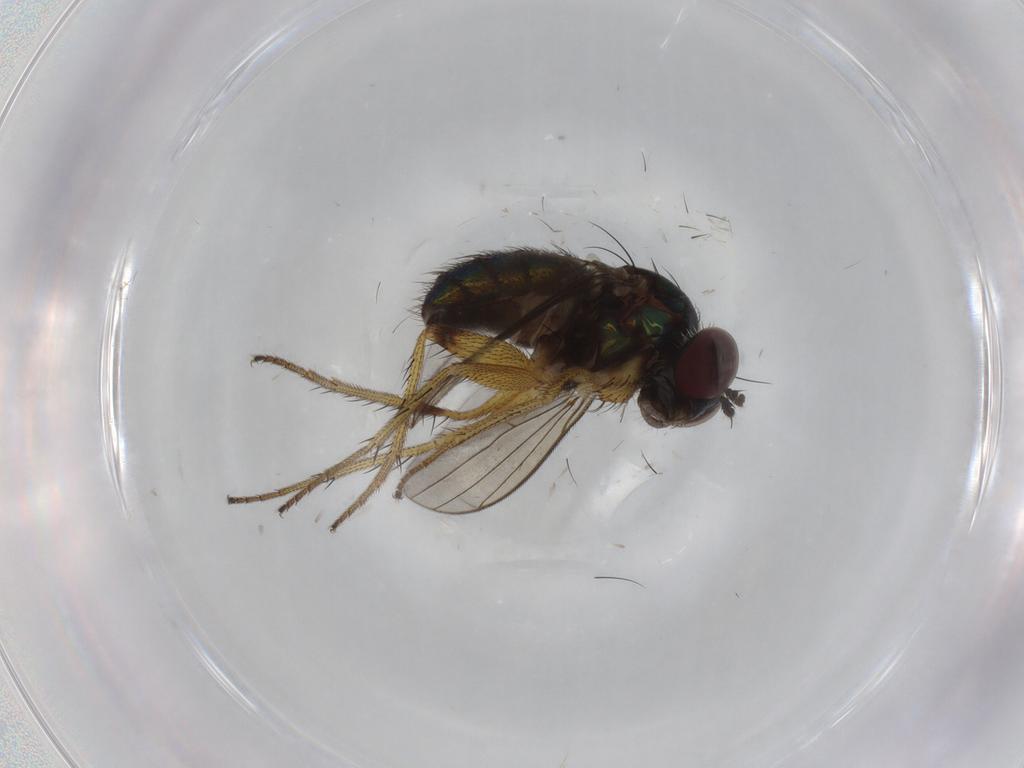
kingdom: Animalia
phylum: Arthropoda
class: Insecta
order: Diptera
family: Dolichopodidae
